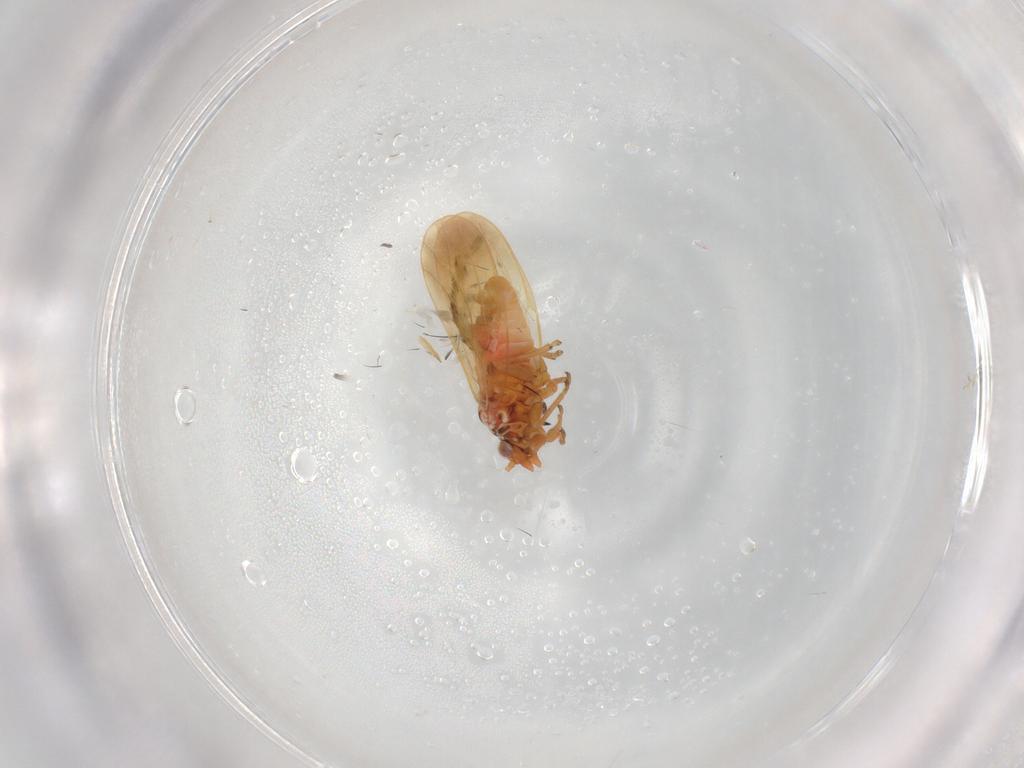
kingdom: Animalia
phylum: Arthropoda
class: Insecta
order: Lepidoptera
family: Blastobasidae
